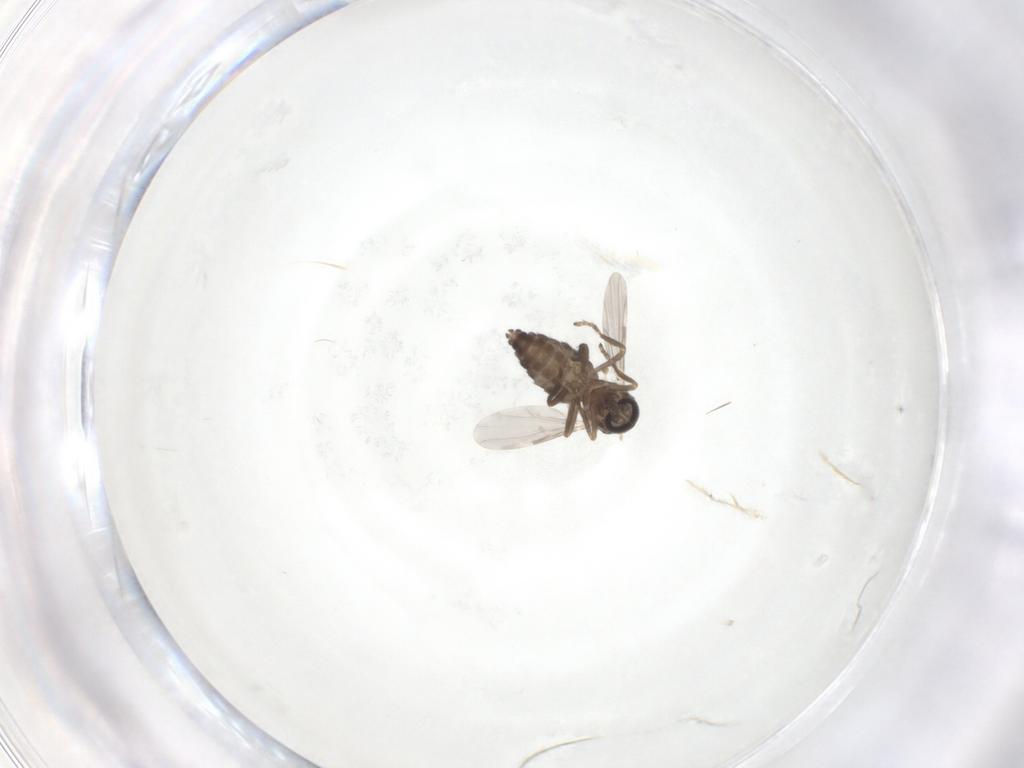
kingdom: Animalia
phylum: Arthropoda
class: Insecta
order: Diptera
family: Ceratopogonidae
